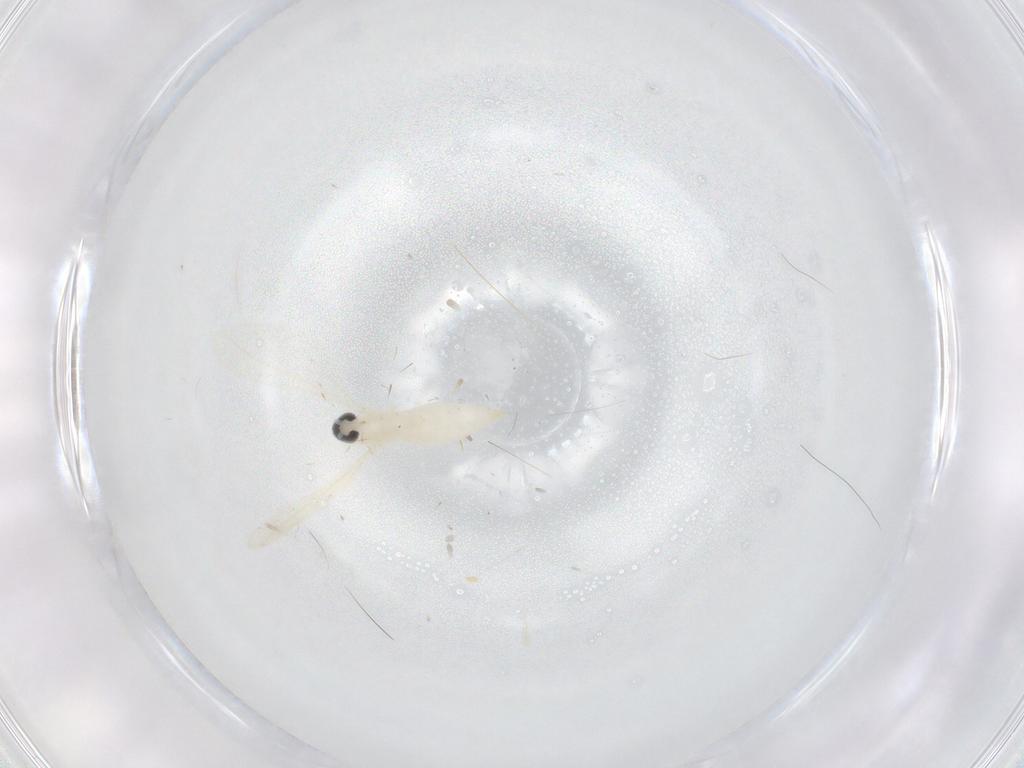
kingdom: Animalia
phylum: Arthropoda
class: Insecta
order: Diptera
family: Cecidomyiidae
